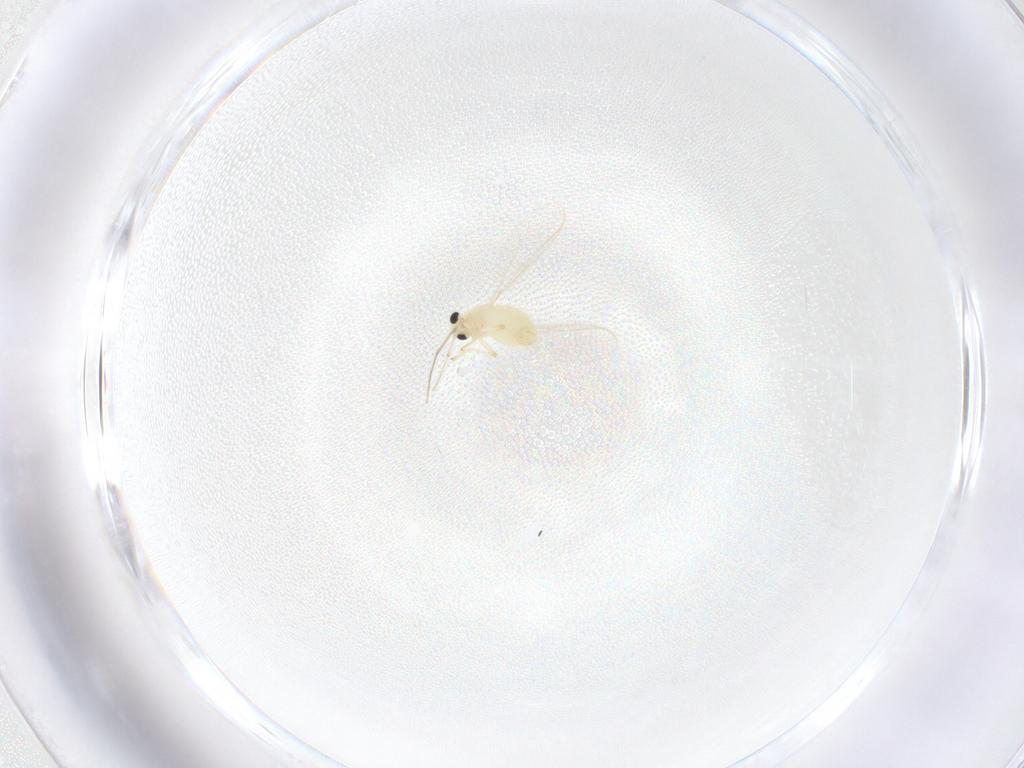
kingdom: Animalia
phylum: Arthropoda
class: Insecta
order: Diptera
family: Chironomidae
